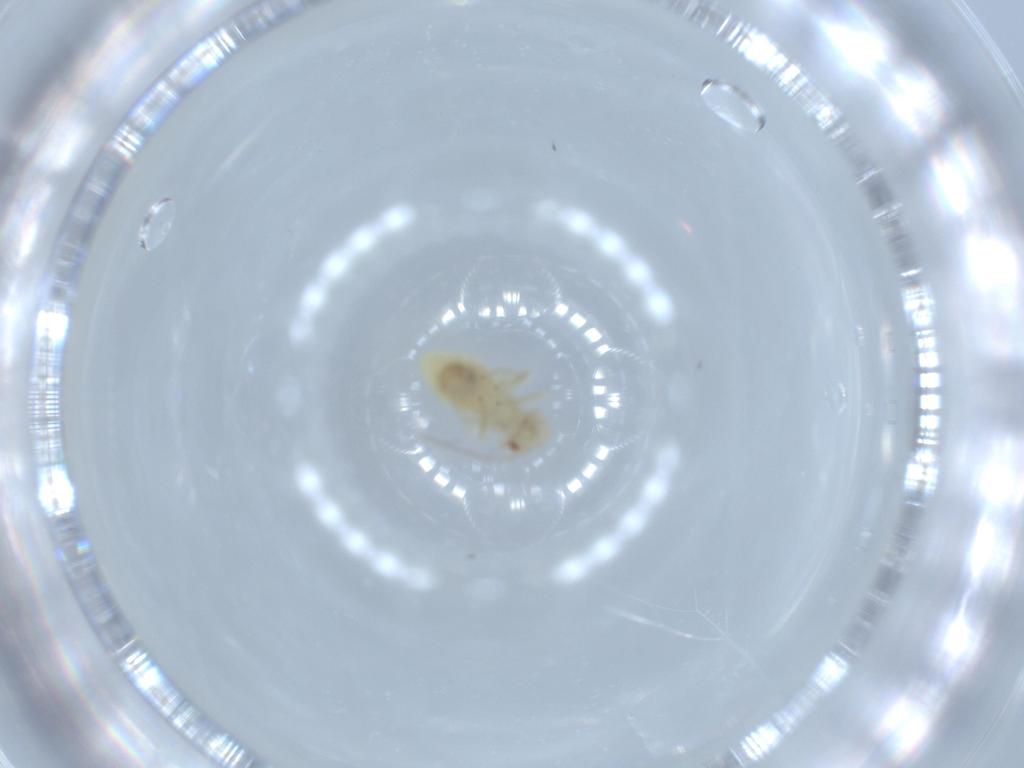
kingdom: Animalia
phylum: Arthropoda
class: Insecta
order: Psocodea
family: Caeciliusidae
